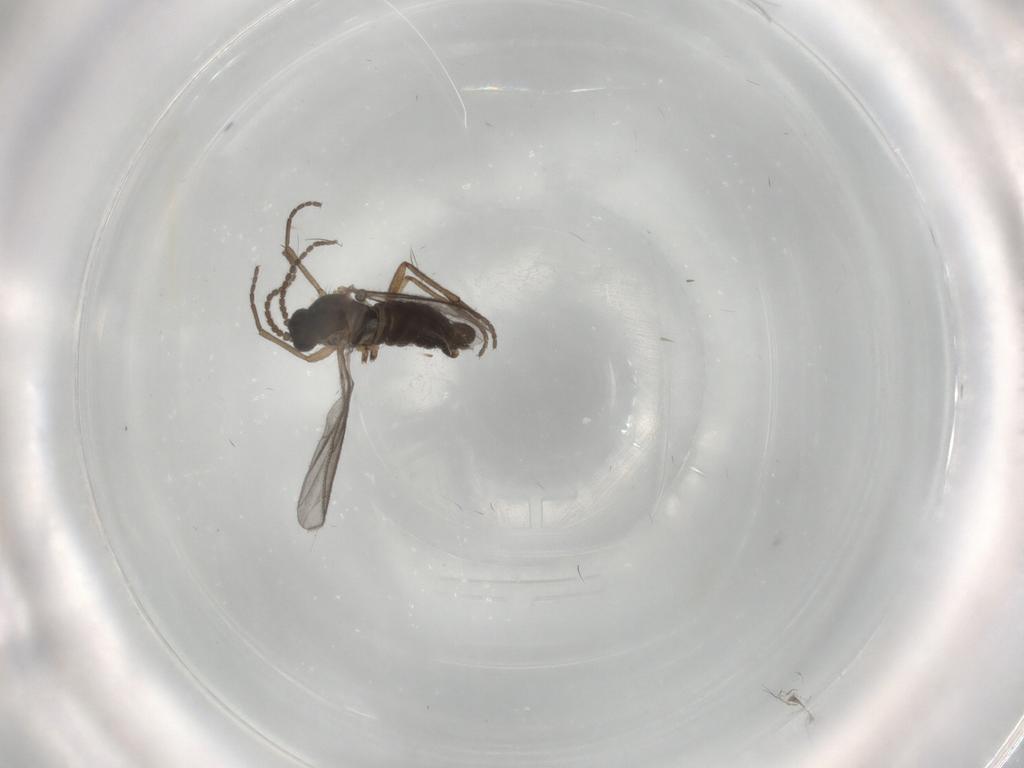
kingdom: Animalia
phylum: Arthropoda
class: Insecta
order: Diptera
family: Sciaridae
